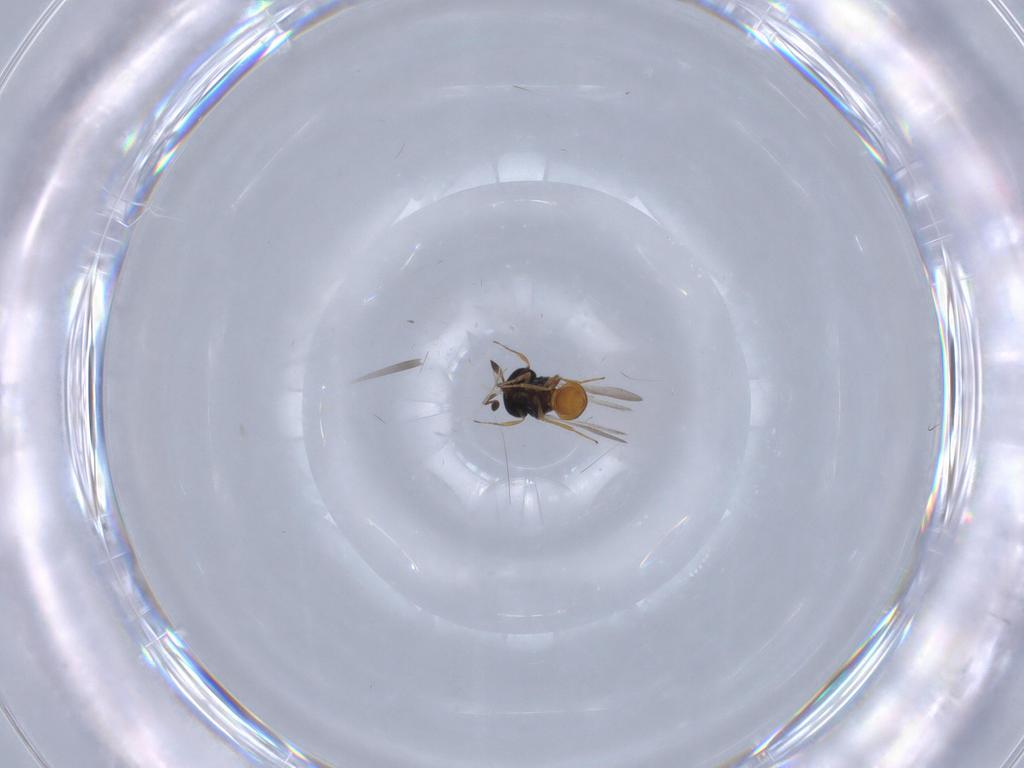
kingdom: Animalia
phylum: Arthropoda
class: Insecta
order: Hymenoptera
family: Scelionidae
